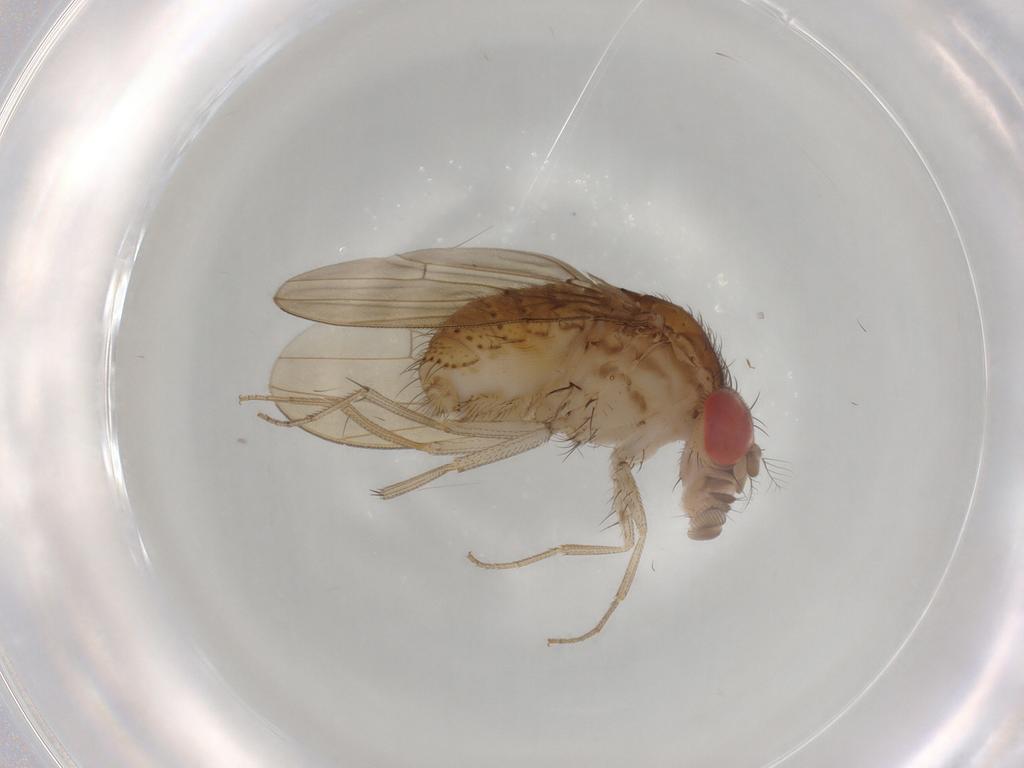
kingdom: Animalia
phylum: Arthropoda
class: Insecta
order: Diptera
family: Drosophilidae
